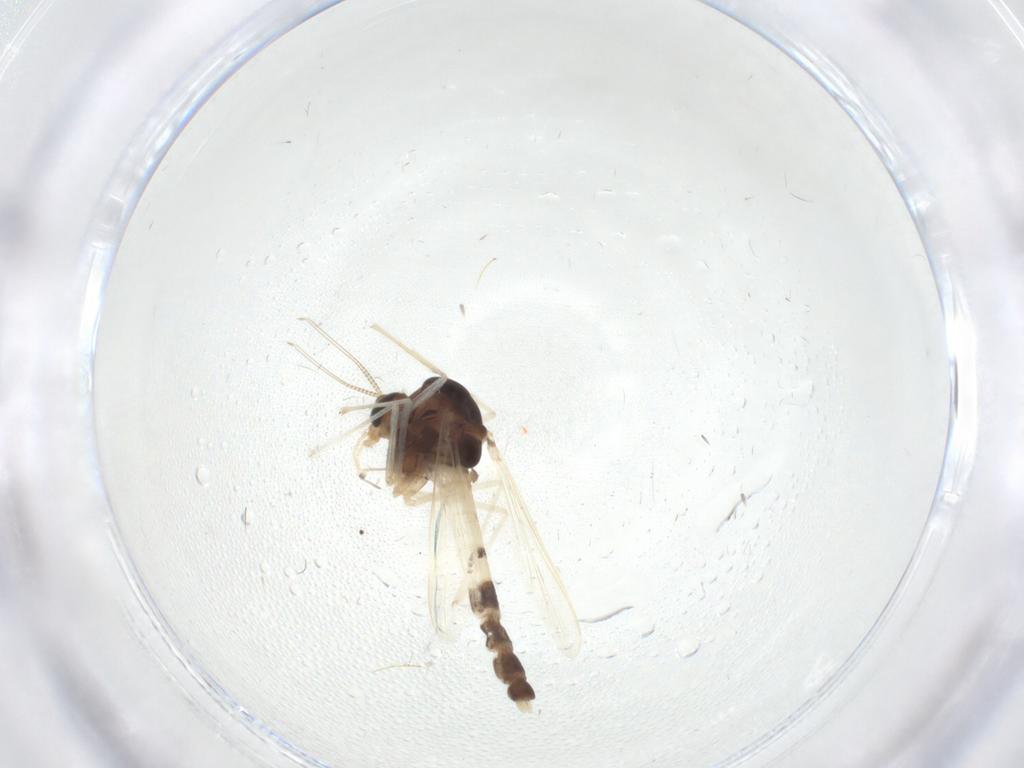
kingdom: Animalia
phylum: Arthropoda
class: Insecta
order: Diptera
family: Chironomidae
